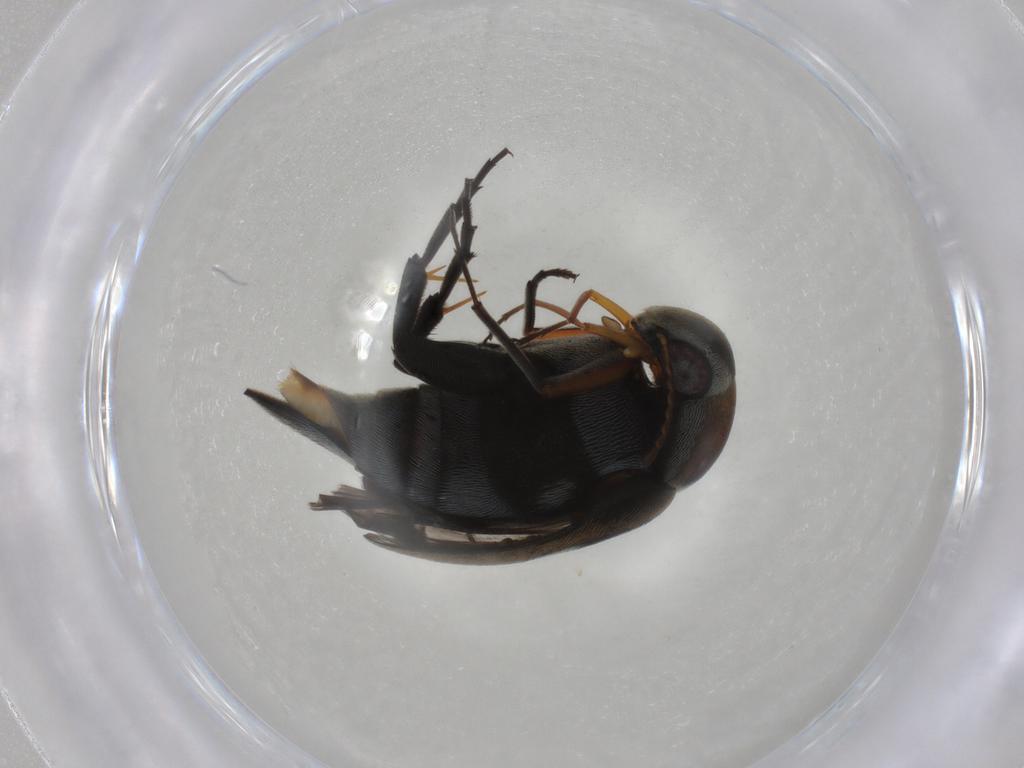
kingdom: Animalia
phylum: Arthropoda
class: Insecta
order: Coleoptera
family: Mordellidae
